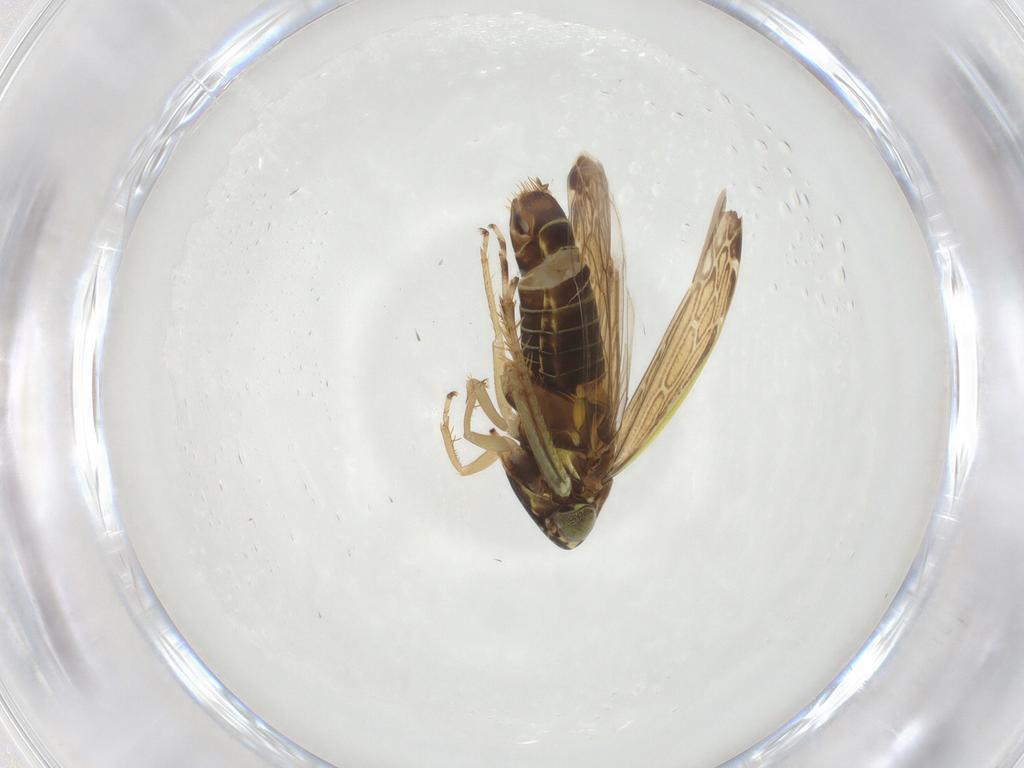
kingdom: Animalia
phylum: Arthropoda
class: Insecta
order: Hemiptera
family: Cicadellidae
